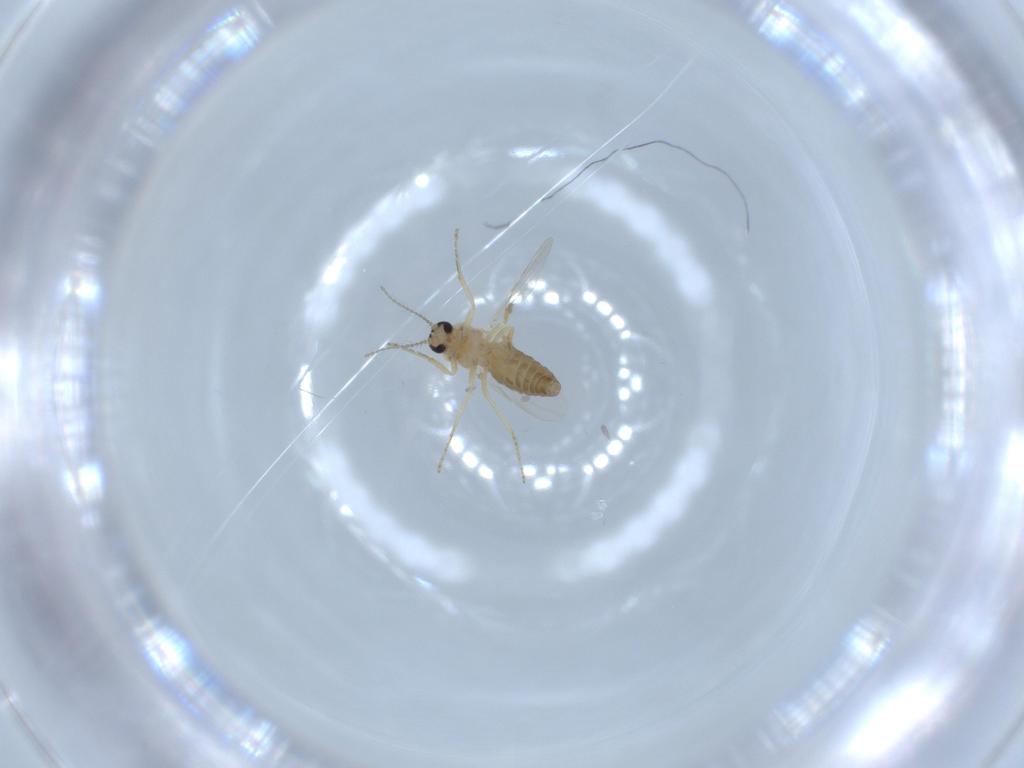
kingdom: Animalia
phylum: Arthropoda
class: Insecta
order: Diptera
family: Ceratopogonidae
